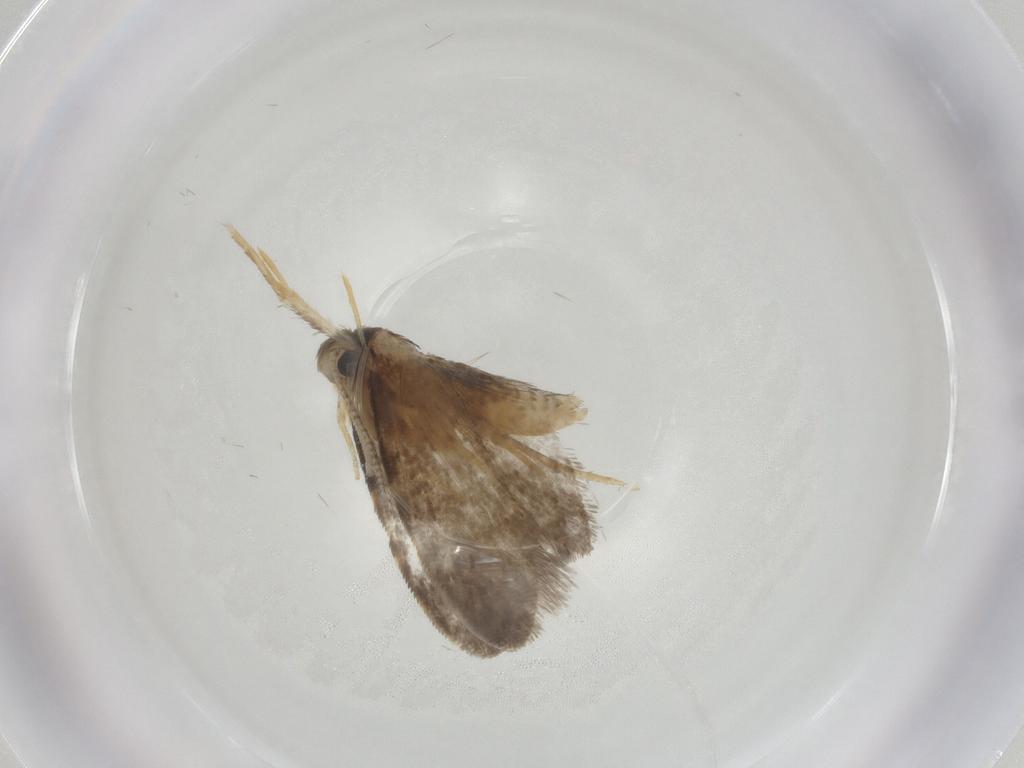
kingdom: Animalia
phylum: Arthropoda
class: Insecta
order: Lepidoptera
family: Psychidae
